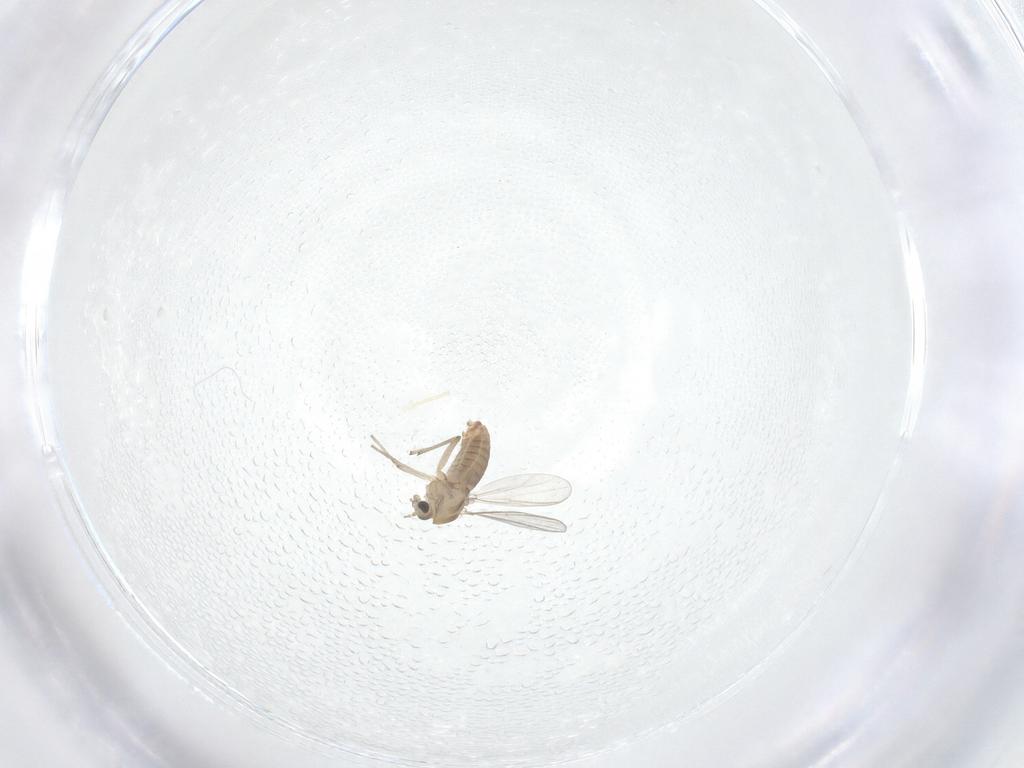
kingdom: Animalia
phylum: Arthropoda
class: Insecta
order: Diptera
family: Chironomidae
